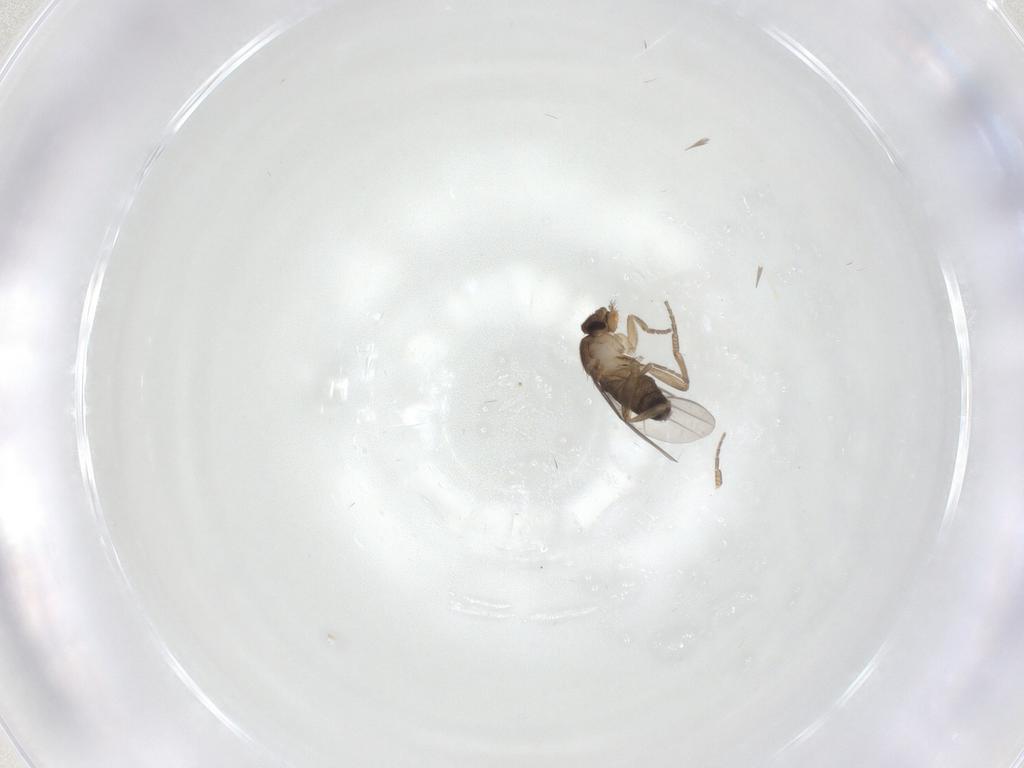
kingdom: Animalia
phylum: Arthropoda
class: Insecta
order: Diptera
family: Phoridae
